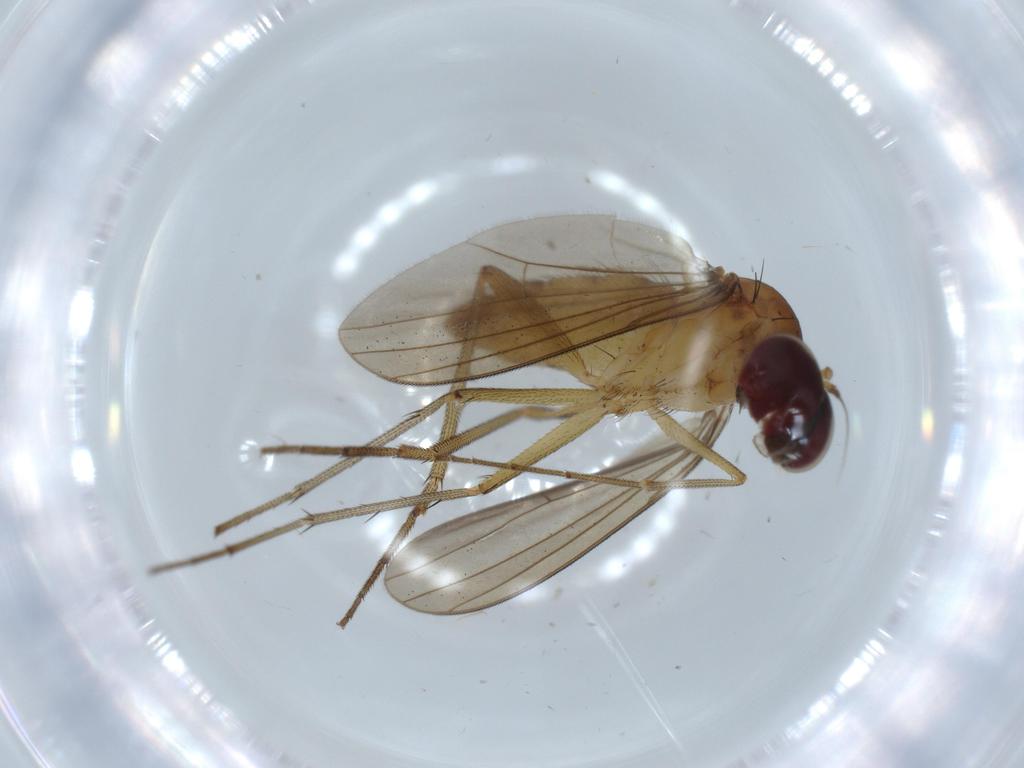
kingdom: Animalia
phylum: Arthropoda
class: Insecta
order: Diptera
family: Dolichopodidae
